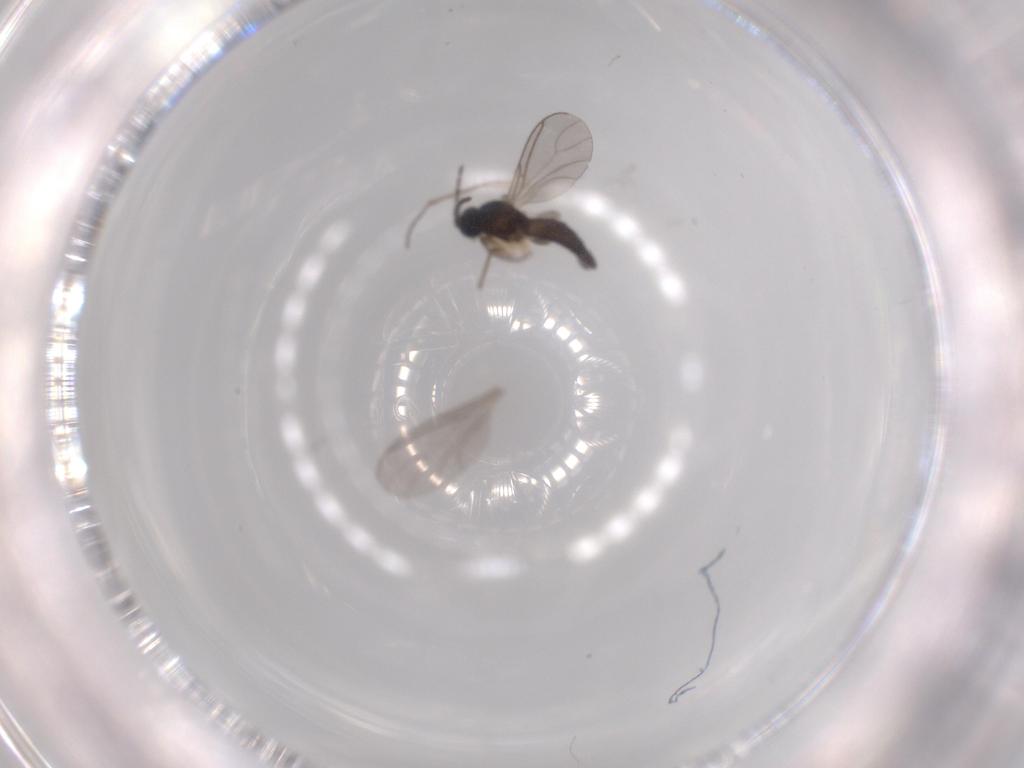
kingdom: Animalia
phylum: Arthropoda
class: Insecta
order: Diptera
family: Sciaridae
